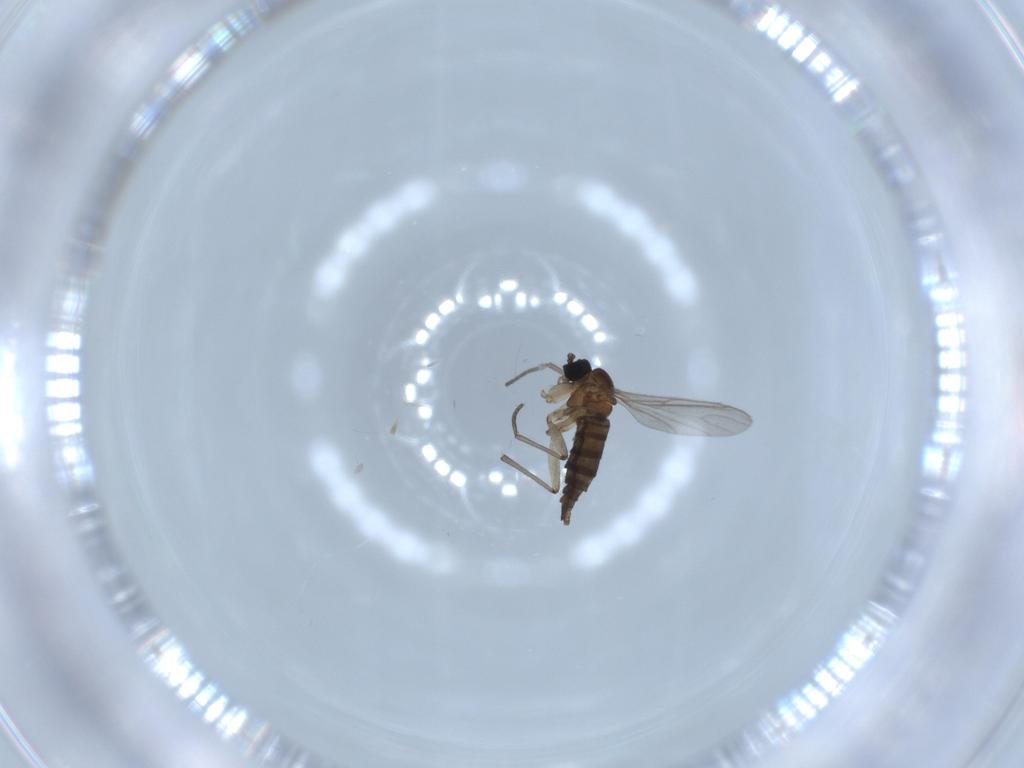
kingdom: Animalia
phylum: Arthropoda
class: Insecta
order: Diptera
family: Sciaridae
